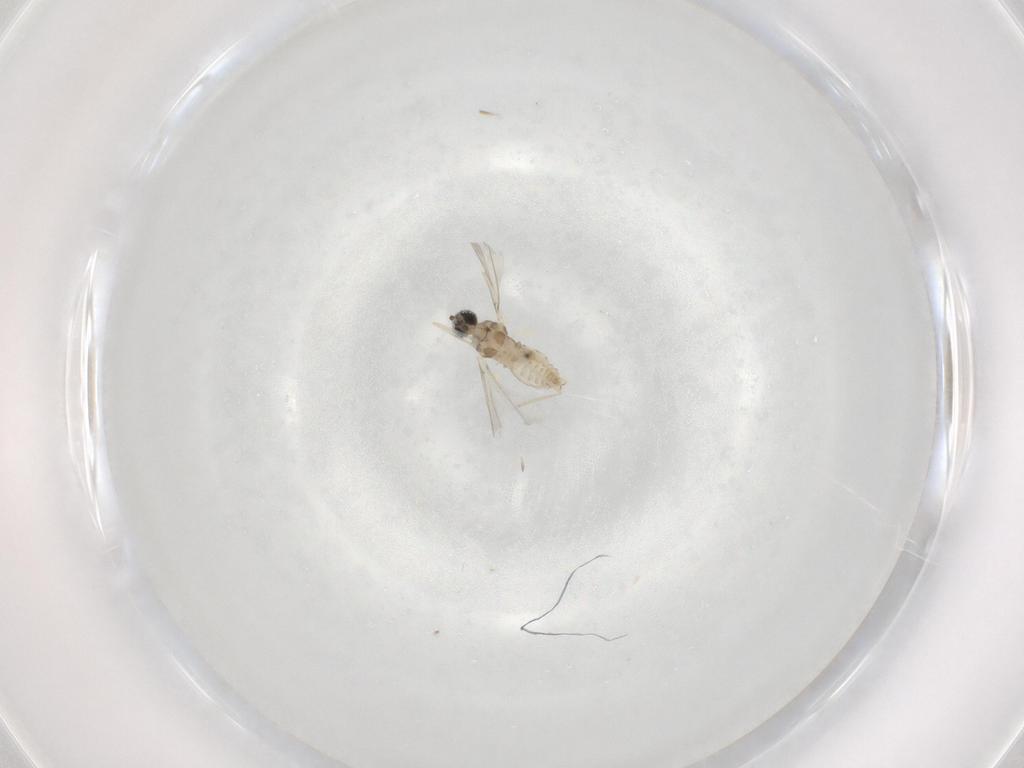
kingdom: Animalia
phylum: Arthropoda
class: Insecta
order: Diptera
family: Cecidomyiidae
